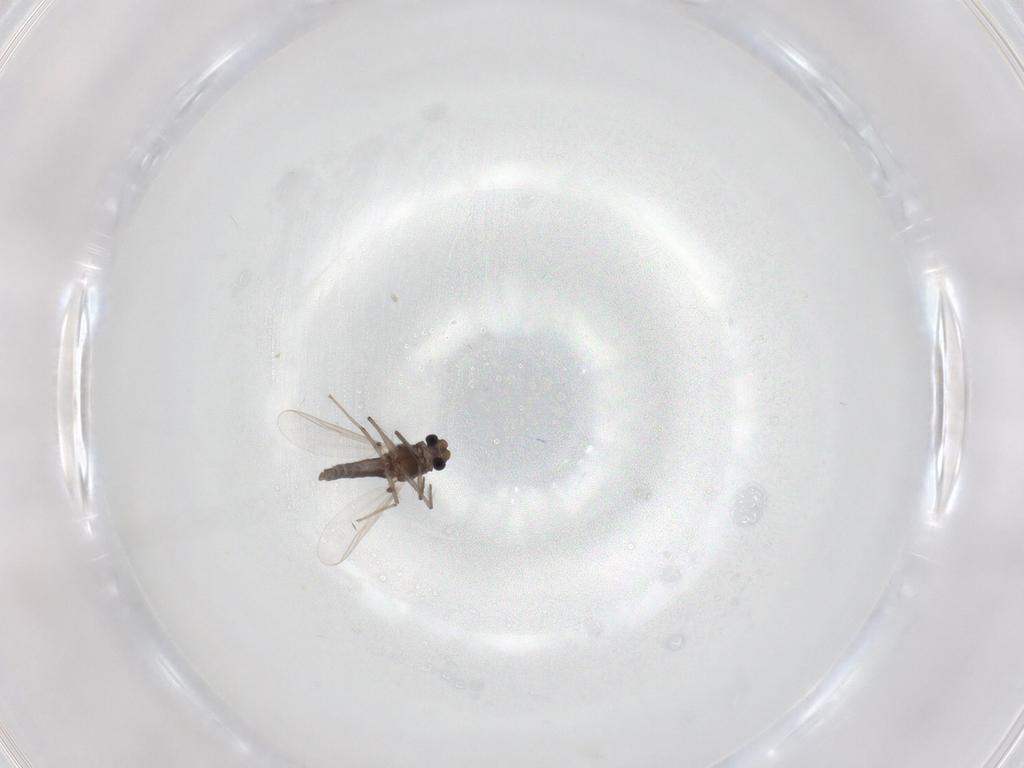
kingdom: Animalia
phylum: Arthropoda
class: Insecta
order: Diptera
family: Chironomidae
